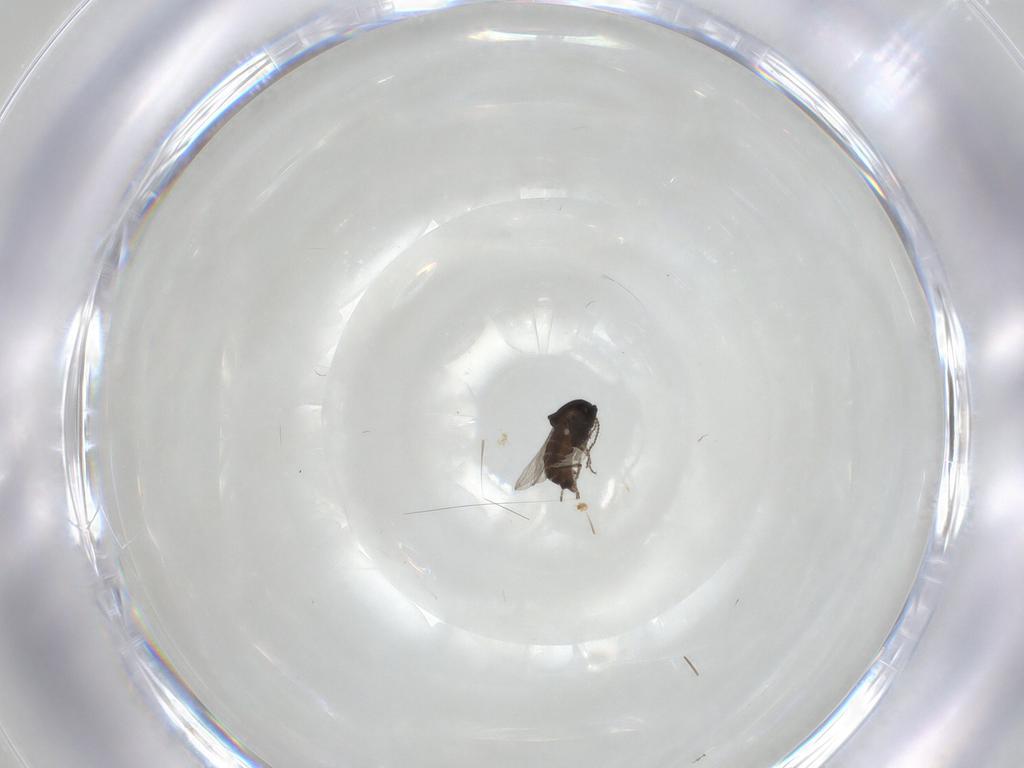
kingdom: Animalia
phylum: Arthropoda
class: Insecta
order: Diptera
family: Ceratopogonidae
